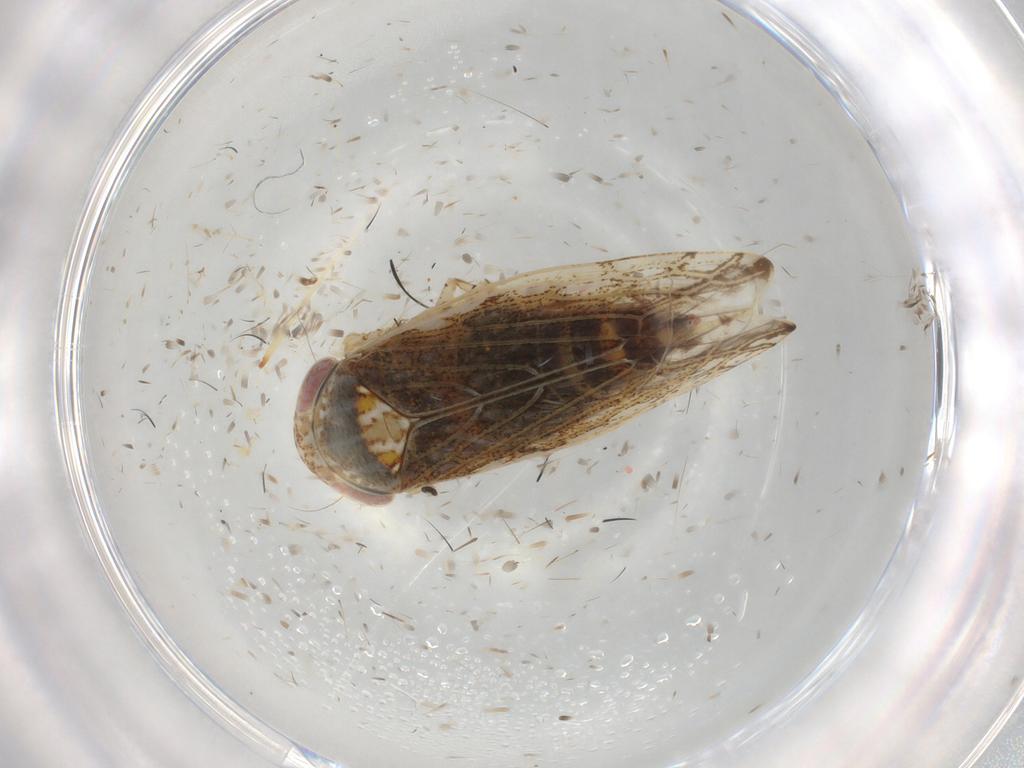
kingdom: Animalia
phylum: Arthropoda
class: Insecta
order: Hemiptera
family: Cicadellidae
